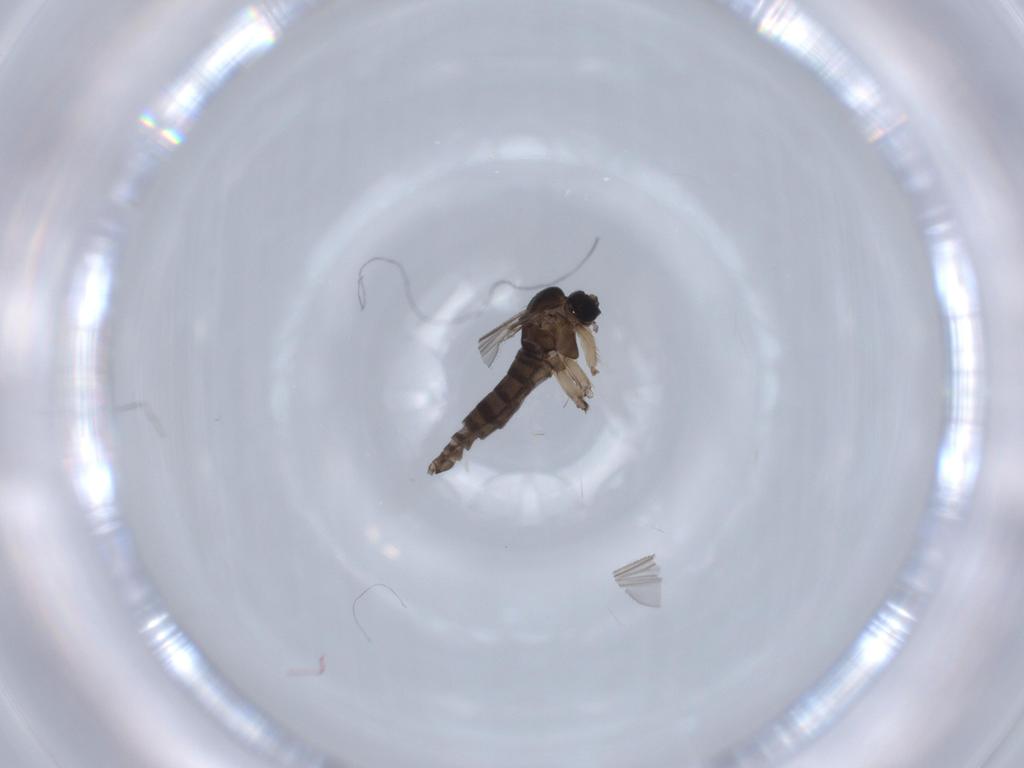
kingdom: Animalia
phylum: Arthropoda
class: Insecta
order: Diptera
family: Sciaridae
